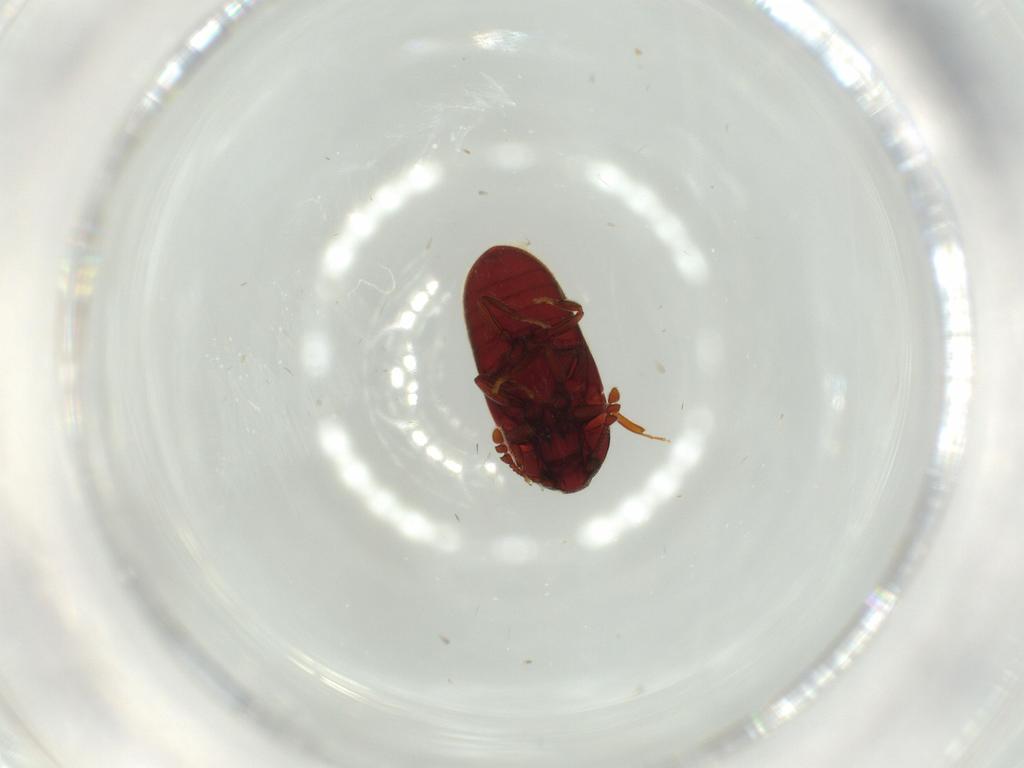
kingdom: Animalia
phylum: Arthropoda
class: Insecta
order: Coleoptera
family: Throscidae
